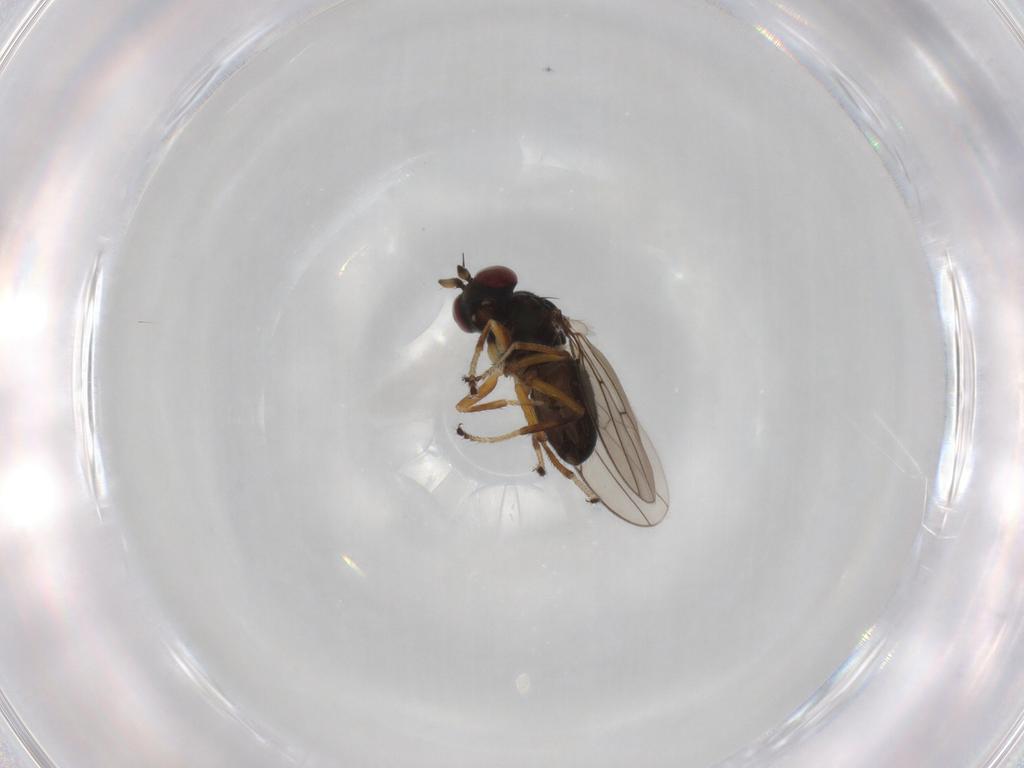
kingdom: Animalia
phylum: Arthropoda
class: Insecta
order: Diptera
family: Ephydridae
